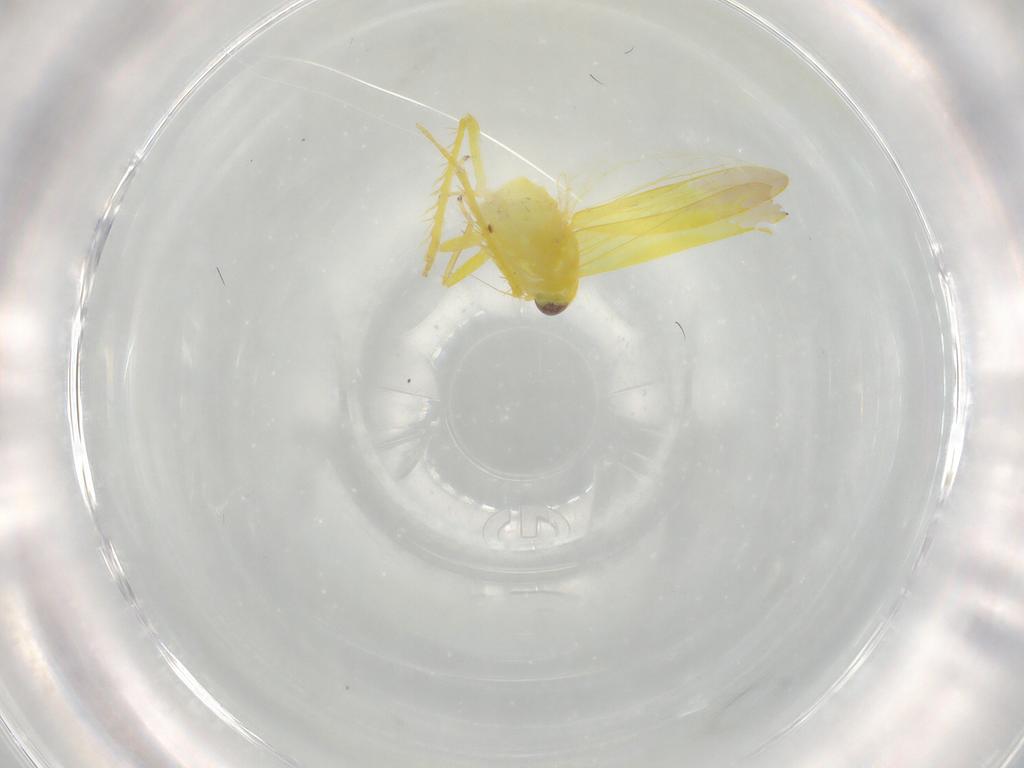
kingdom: Animalia
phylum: Arthropoda
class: Insecta
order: Hemiptera
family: Cicadellidae
